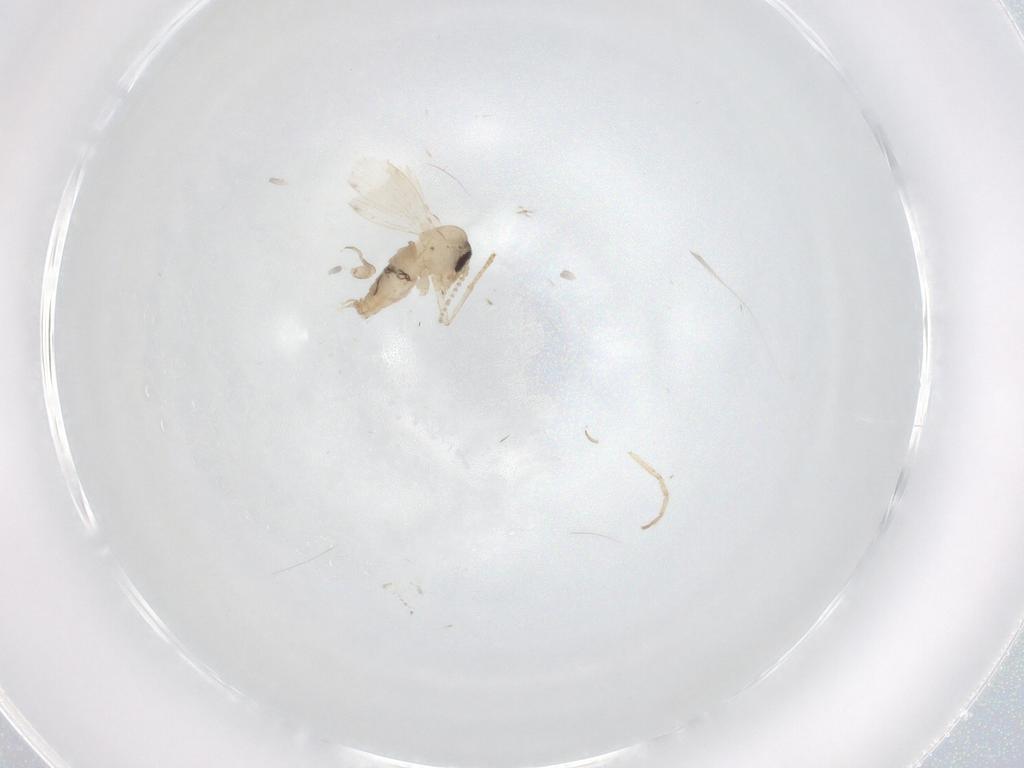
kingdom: Animalia
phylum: Arthropoda
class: Insecta
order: Diptera
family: Psychodidae
